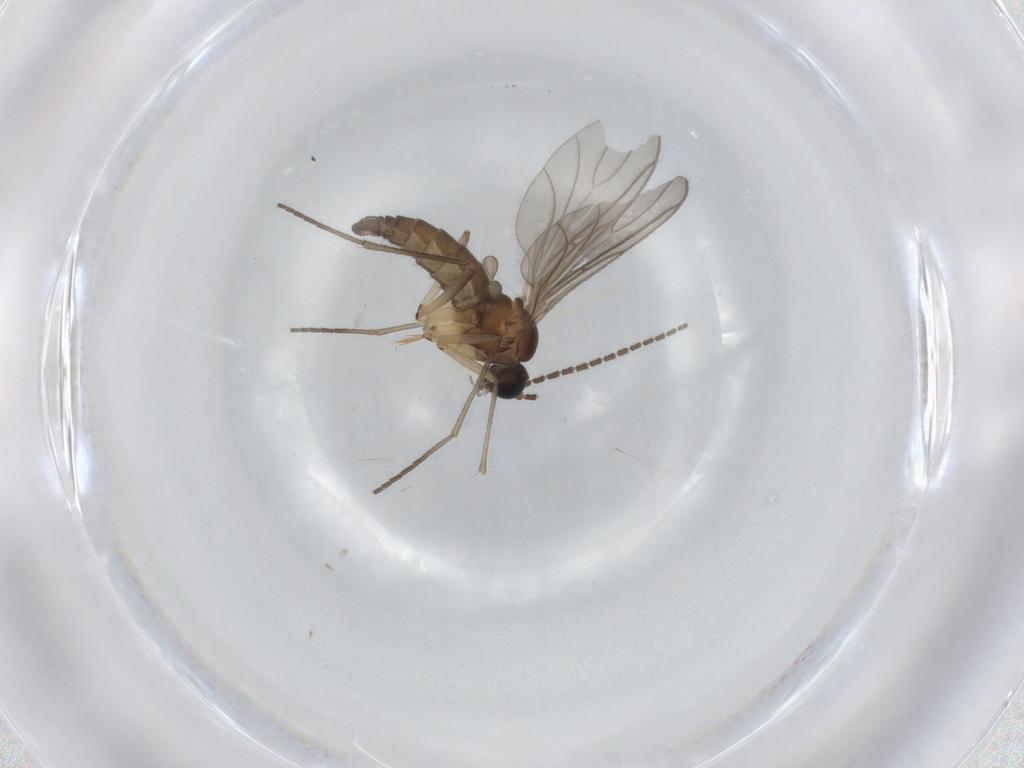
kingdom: Animalia
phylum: Arthropoda
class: Insecta
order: Diptera
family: Sciaridae
